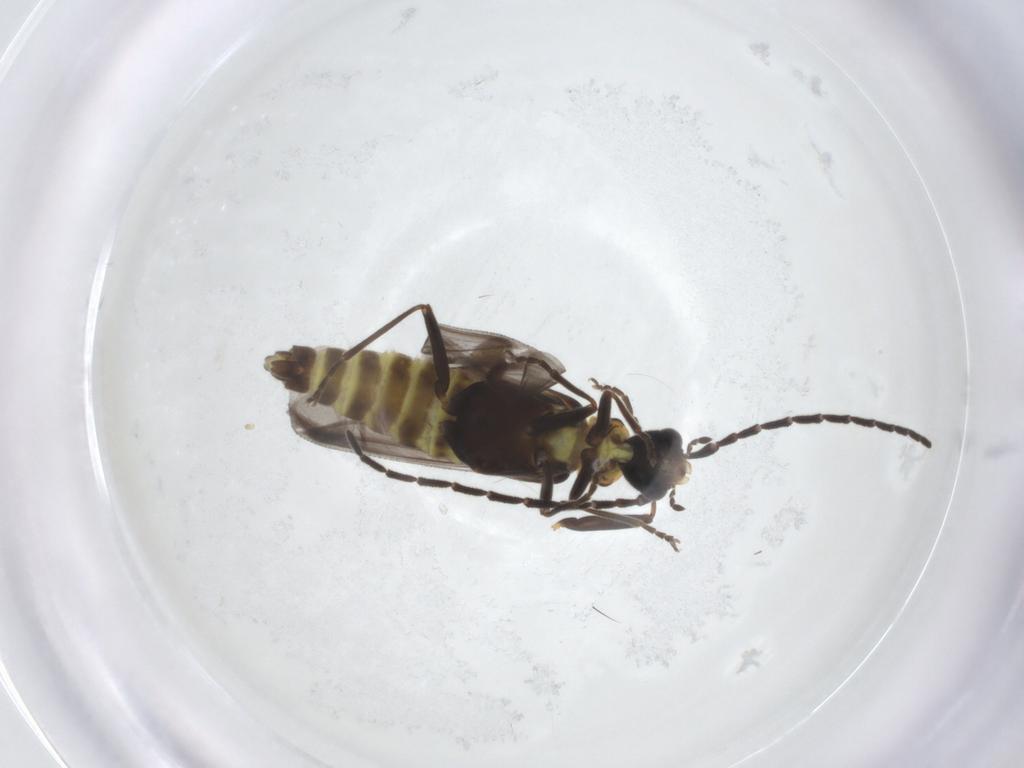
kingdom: Animalia
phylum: Arthropoda
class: Insecta
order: Coleoptera
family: Cantharidae
